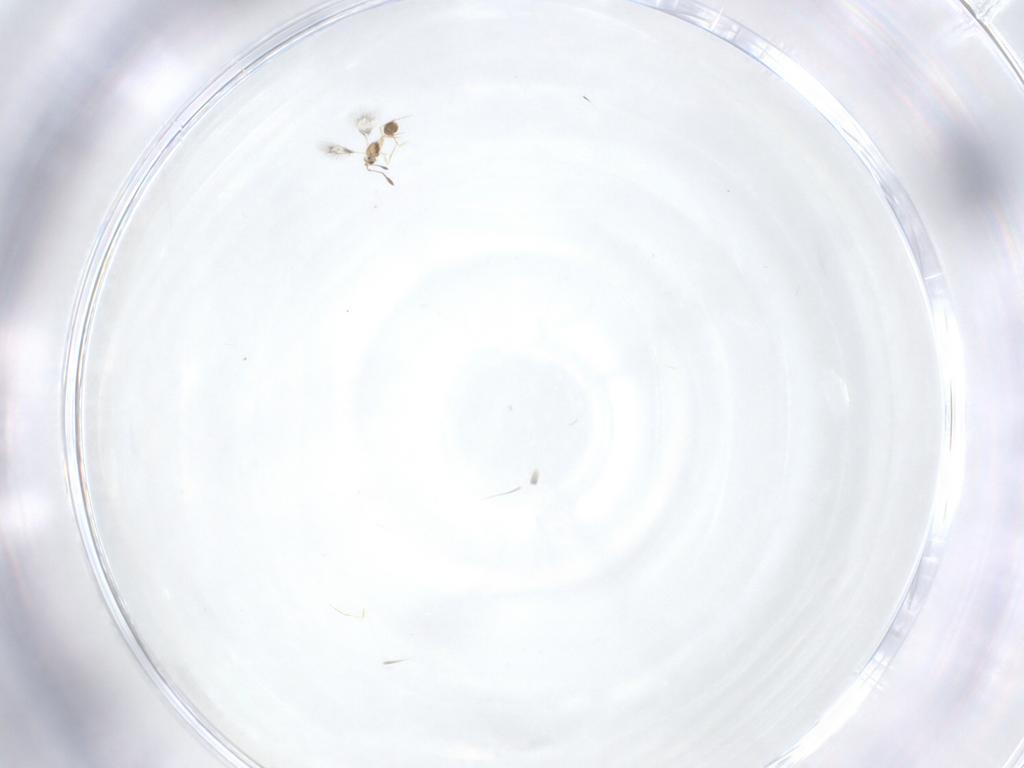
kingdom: Animalia
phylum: Arthropoda
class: Insecta
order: Hymenoptera
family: Mymarommatidae
